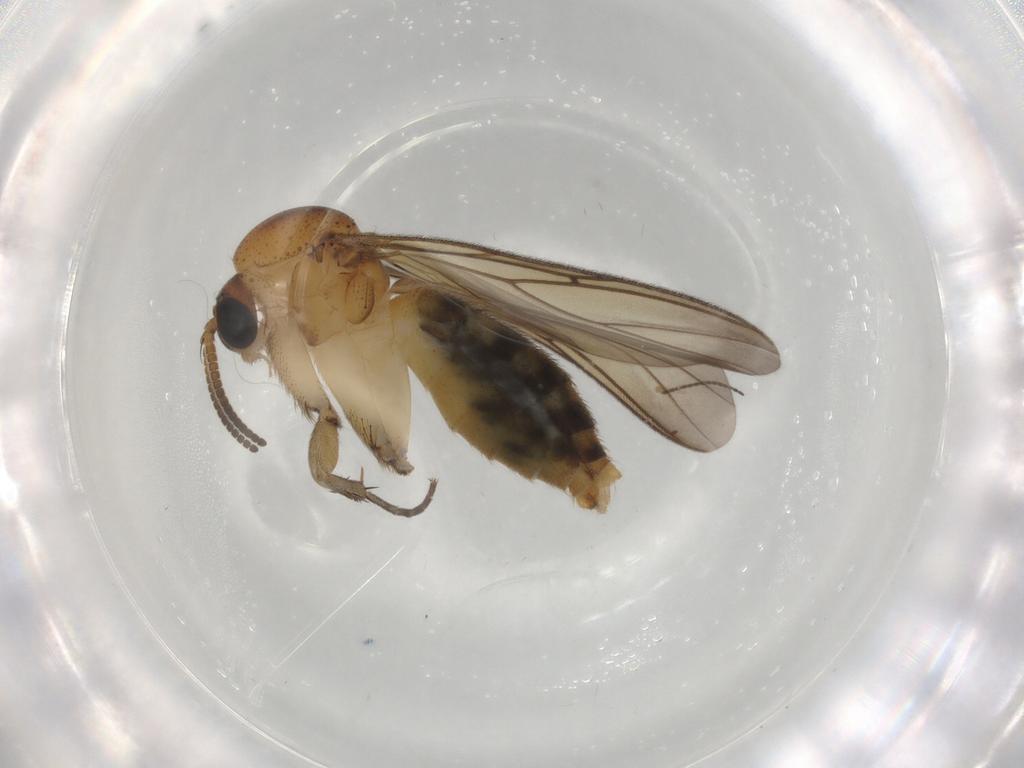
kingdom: Animalia
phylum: Arthropoda
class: Insecta
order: Diptera
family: Mycetophilidae
